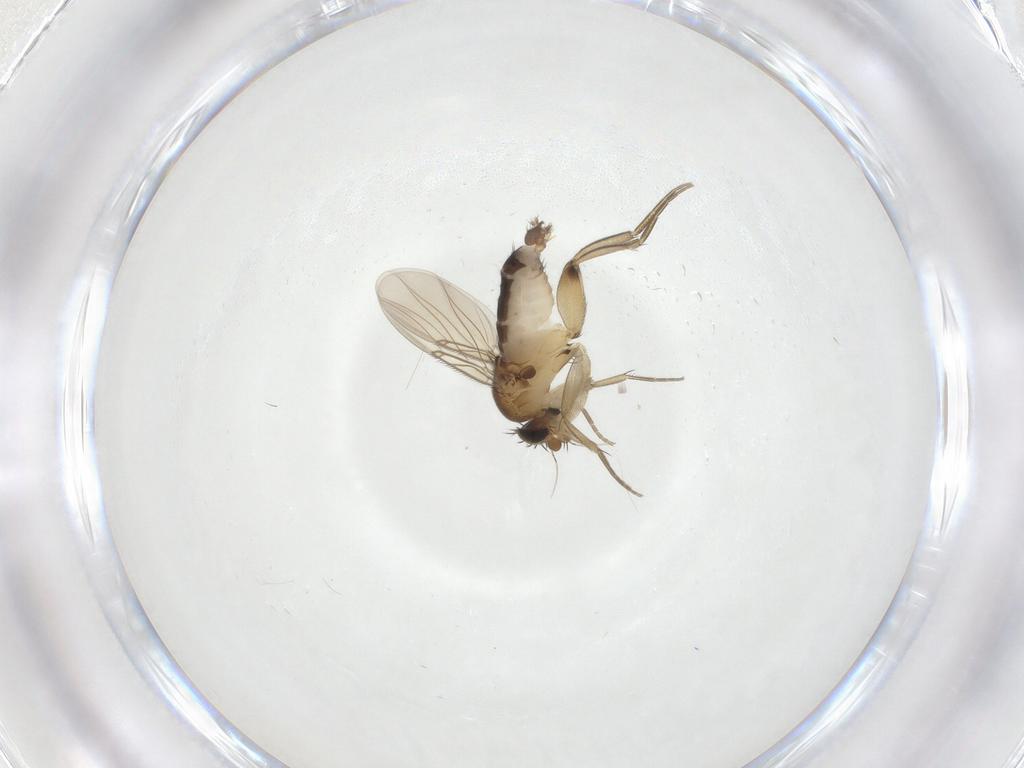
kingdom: Animalia
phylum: Arthropoda
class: Insecta
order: Diptera
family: Phoridae
